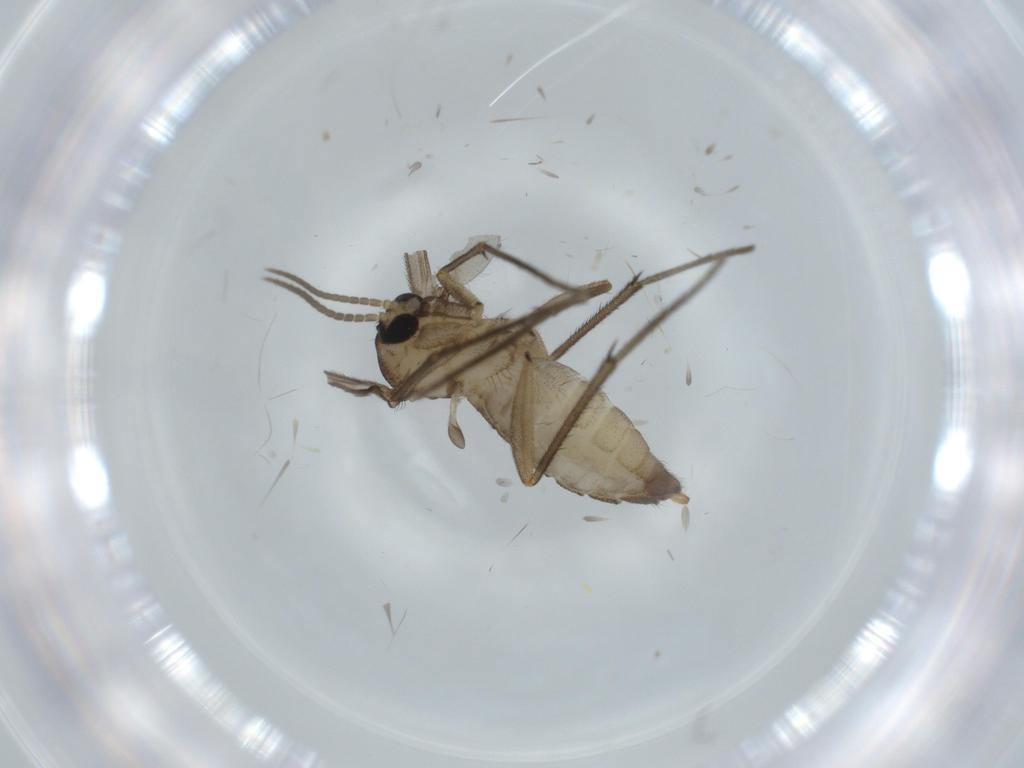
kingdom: Animalia
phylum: Arthropoda
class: Insecta
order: Diptera
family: Diadocidiidae
